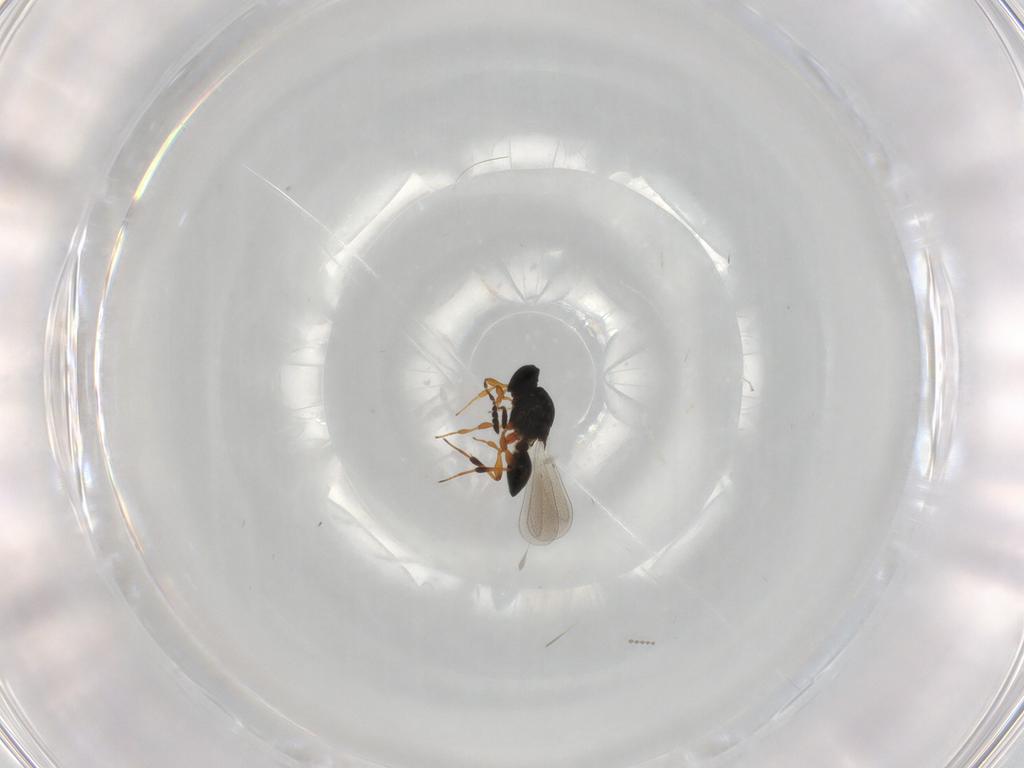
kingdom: Animalia
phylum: Arthropoda
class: Insecta
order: Hymenoptera
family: Platygastridae
